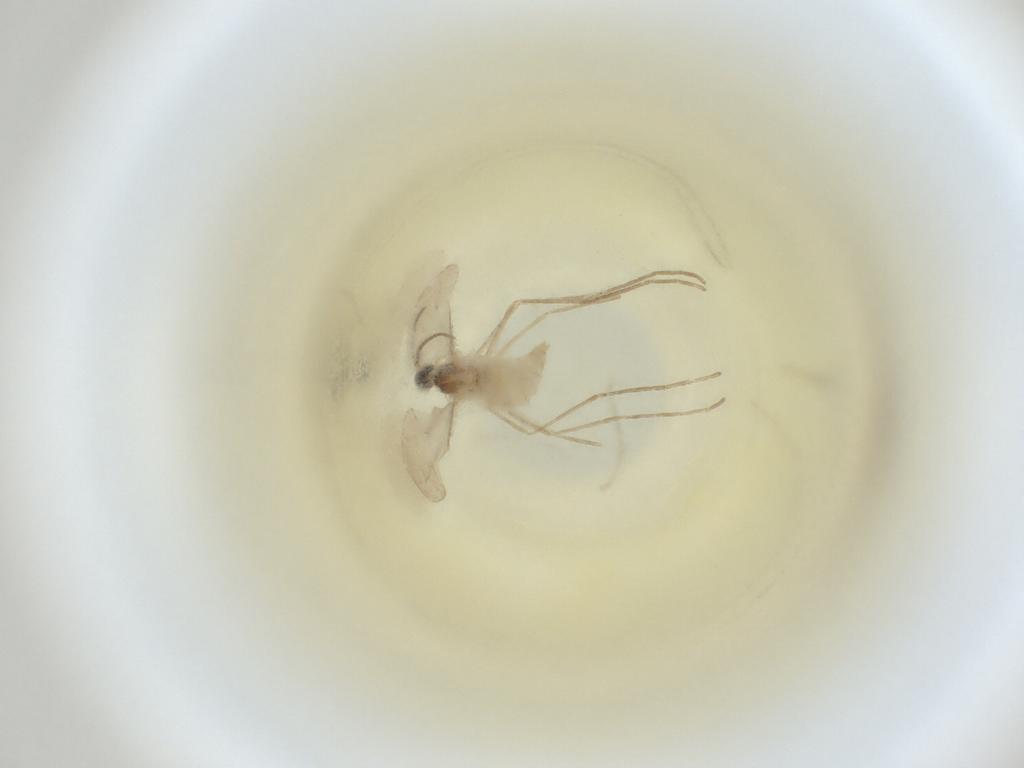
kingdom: Animalia
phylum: Arthropoda
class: Insecta
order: Diptera
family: Cecidomyiidae
